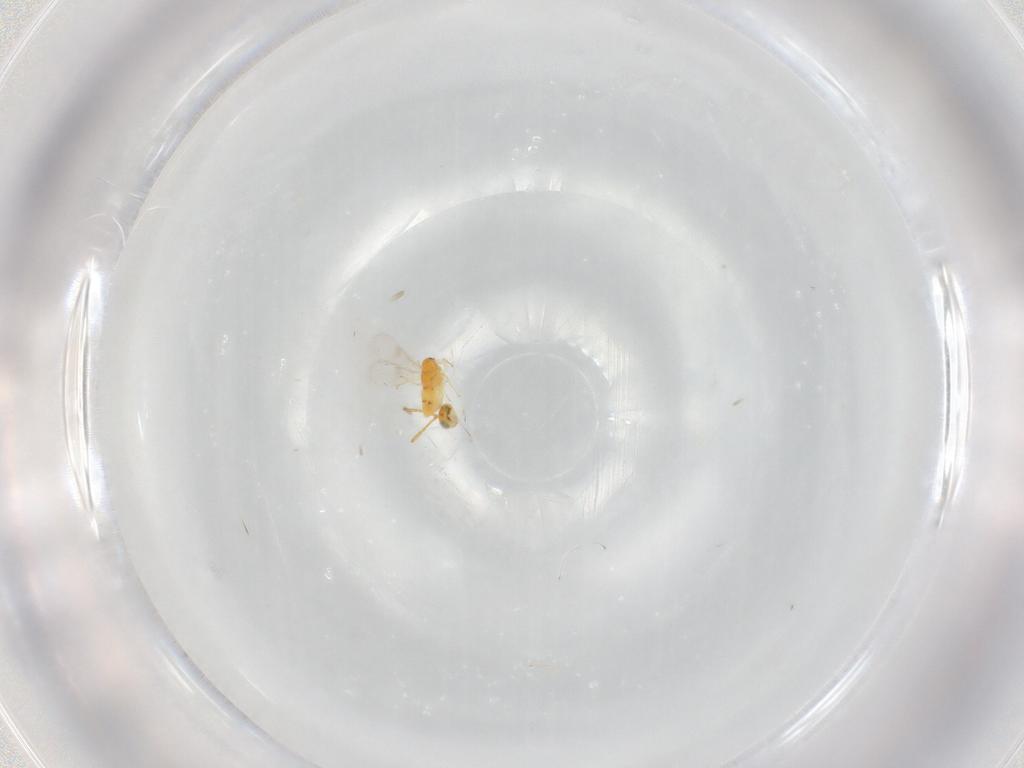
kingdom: Animalia
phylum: Arthropoda
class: Insecta
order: Hymenoptera
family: Aphelinidae
